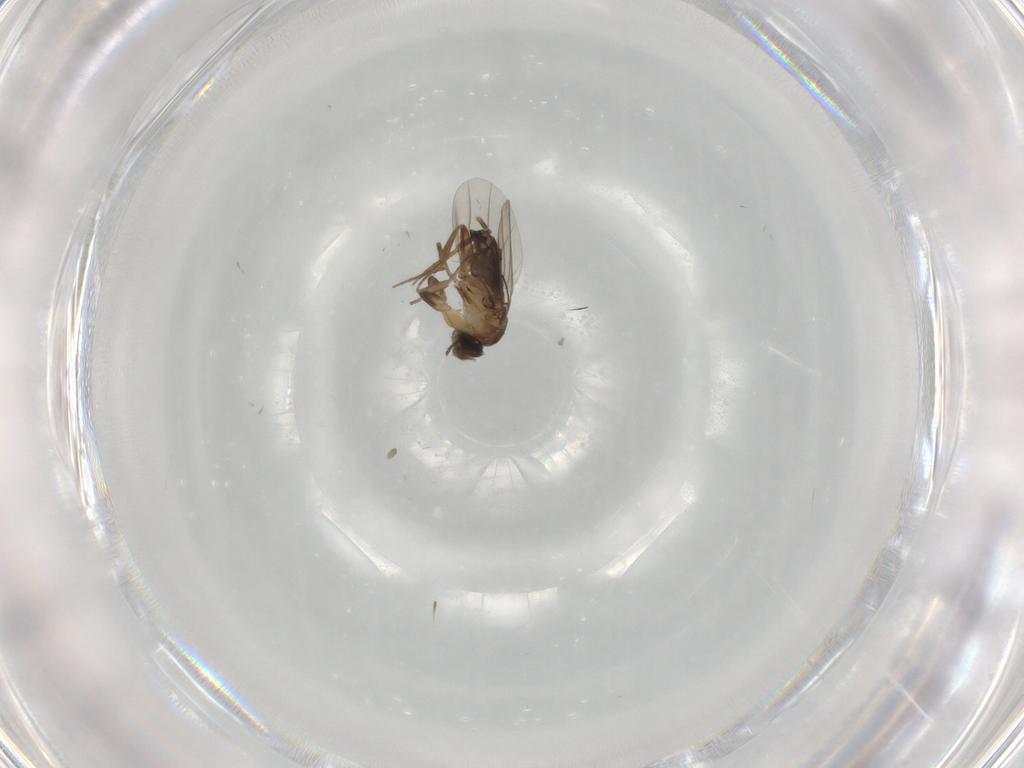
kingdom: Animalia
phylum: Arthropoda
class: Insecta
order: Diptera
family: Phoridae
